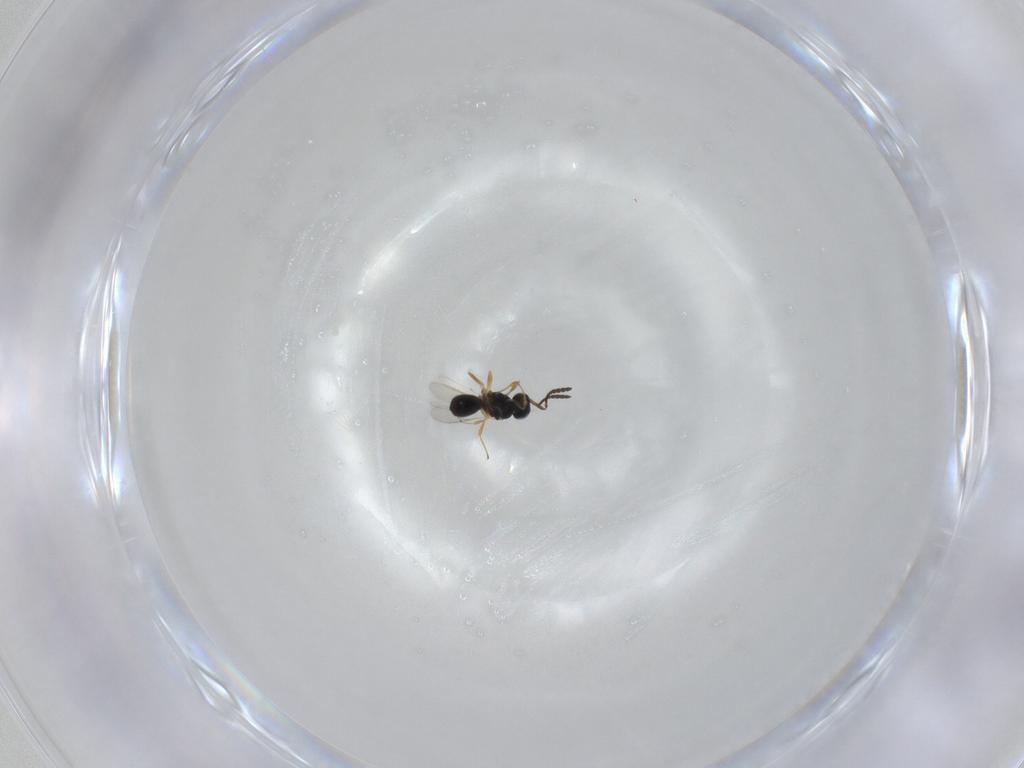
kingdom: Animalia
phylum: Arthropoda
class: Insecta
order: Hymenoptera
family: Scelionidae
